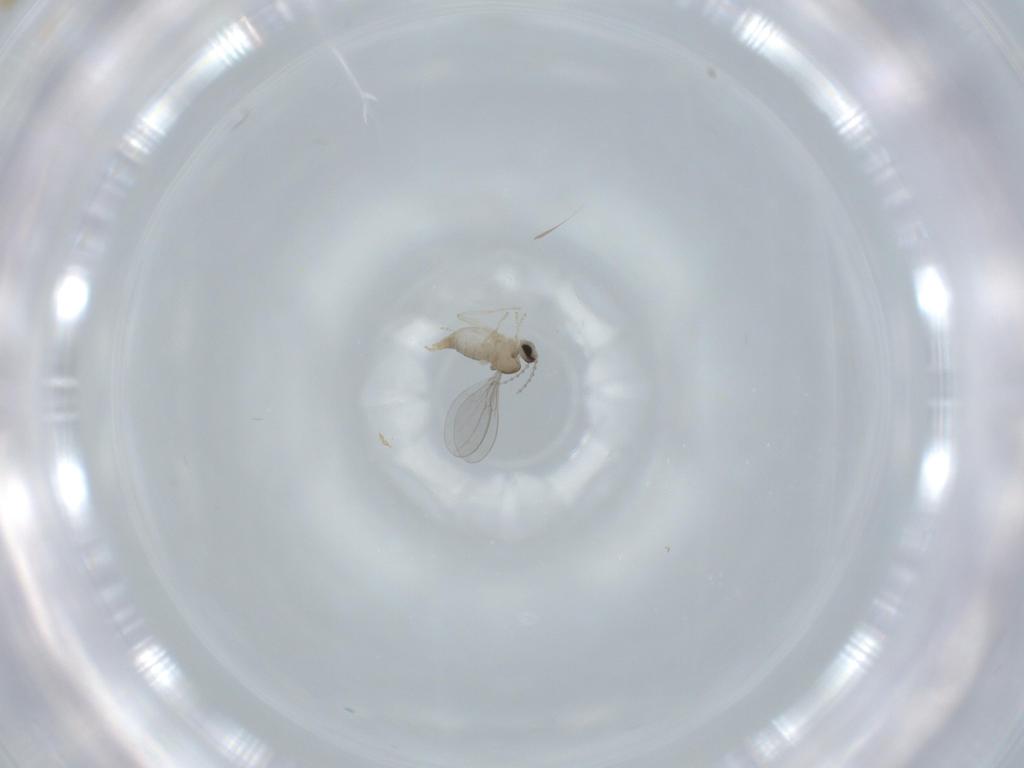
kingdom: Animalia
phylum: Arthropoda
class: Insecta
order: Diptera
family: Cecidomyiidae
